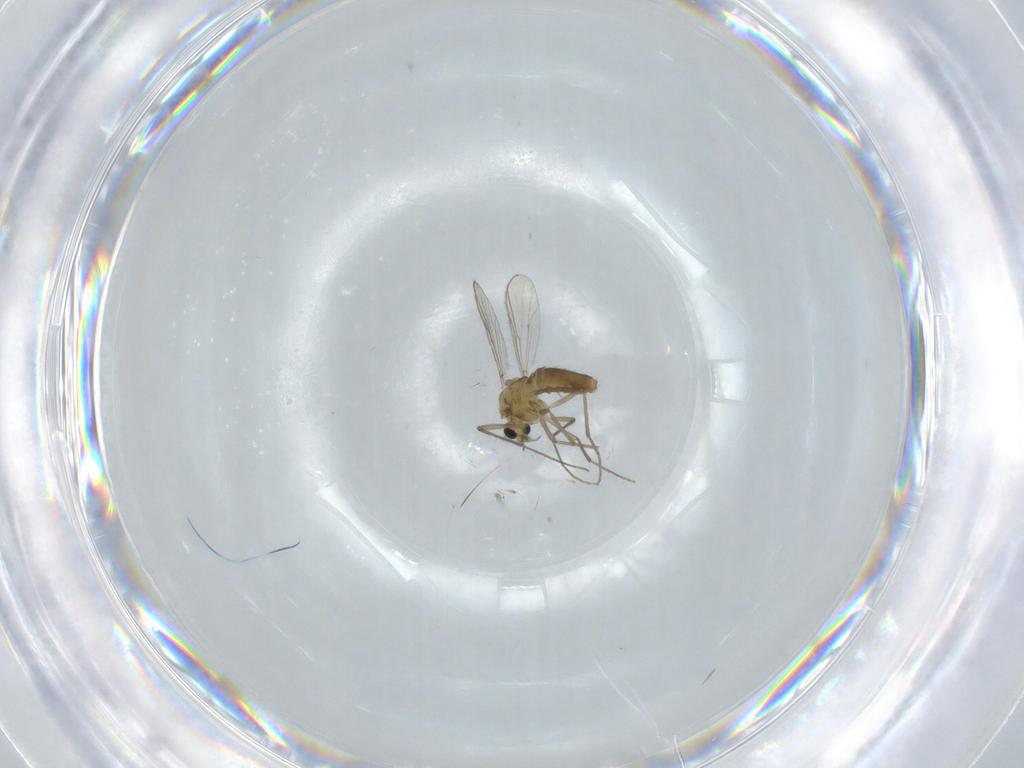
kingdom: Animalia
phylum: Arthropoda
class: Insecta
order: Diptera
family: Chironomidae
